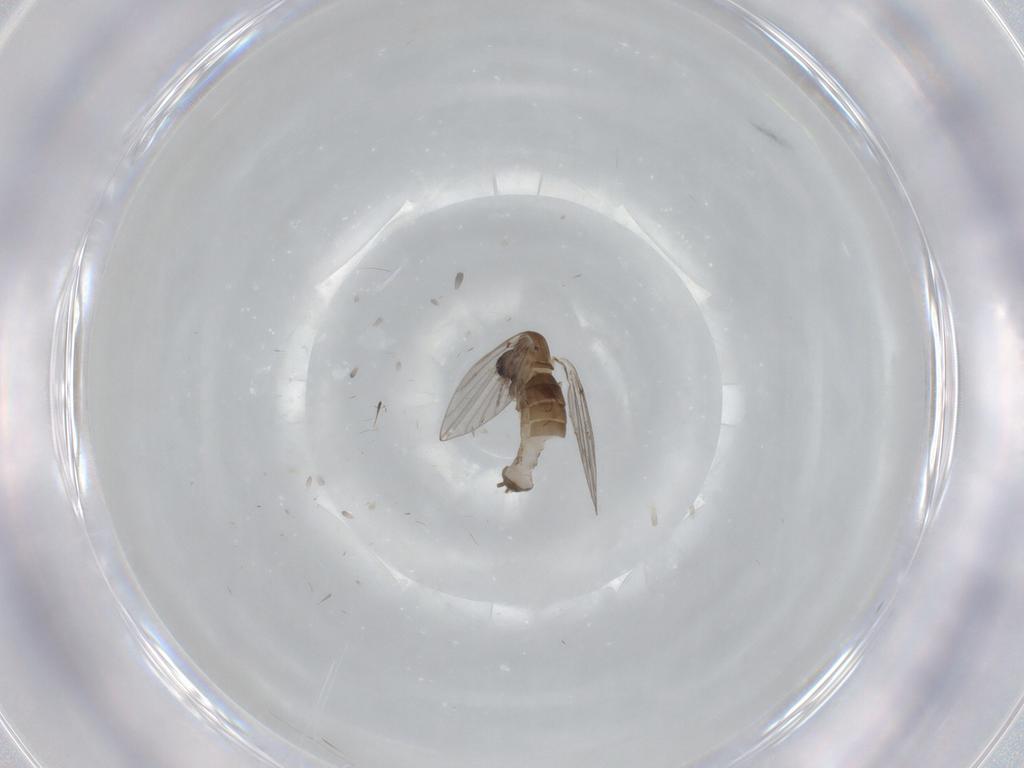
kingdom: Animalia
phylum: Arthropoda
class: Insecta
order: Diptera
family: Psychodidae
